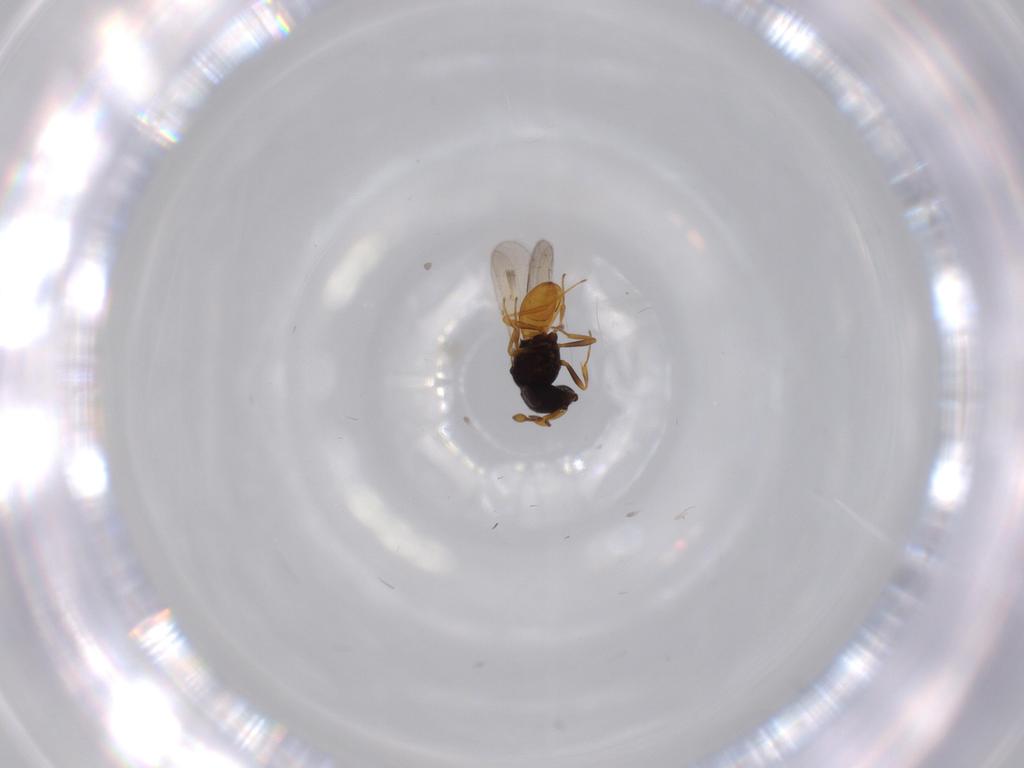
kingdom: Animalia
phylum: Arthropoda
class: Insecta
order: Hymenoptera
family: Scelionidae
